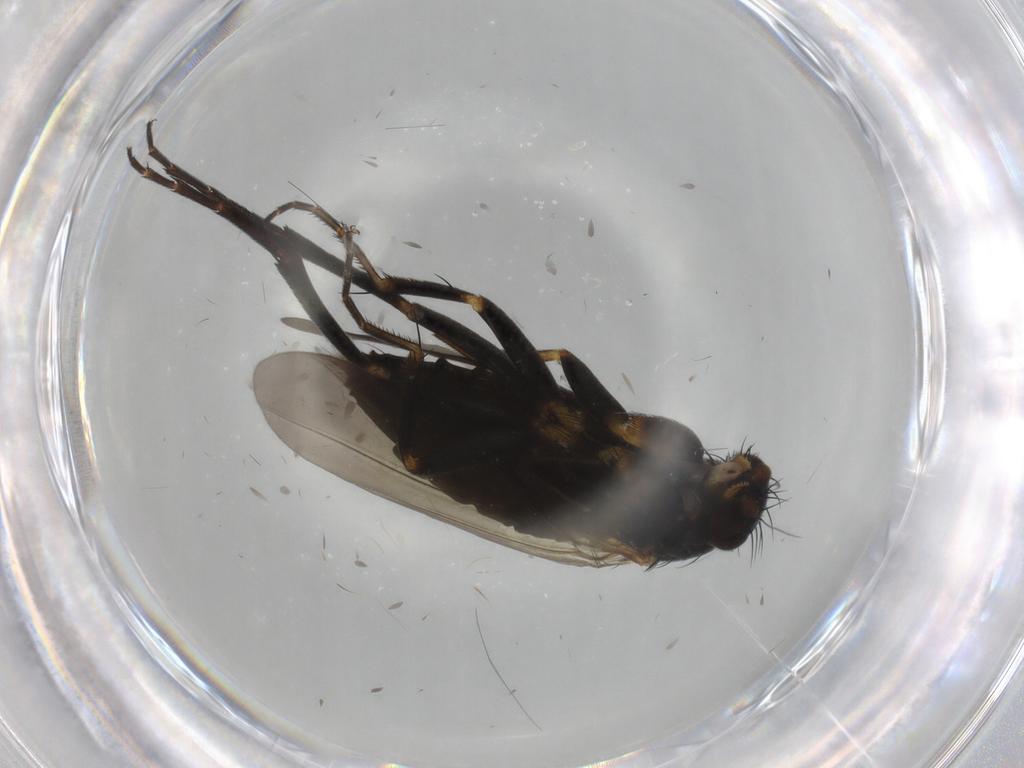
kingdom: Animalia
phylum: Arthropoda
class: Insecta
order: Diptera
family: Phoridae
